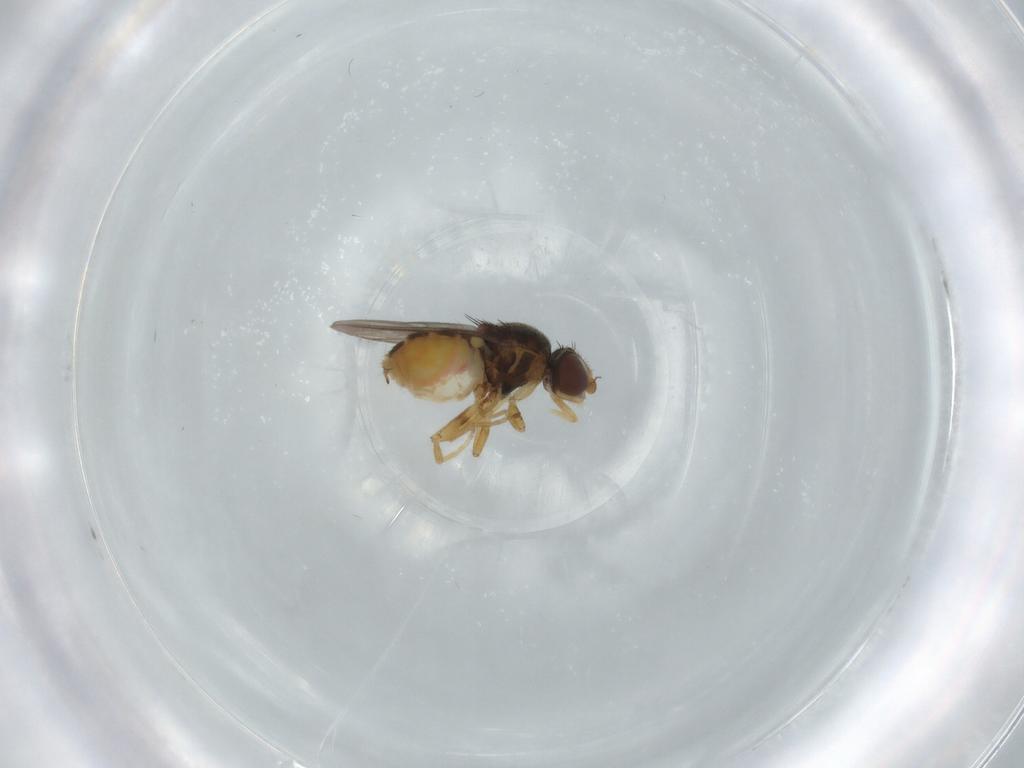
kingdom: Animalia
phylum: Arthropoda
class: Insecta
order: Diptera
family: Chloropidae
